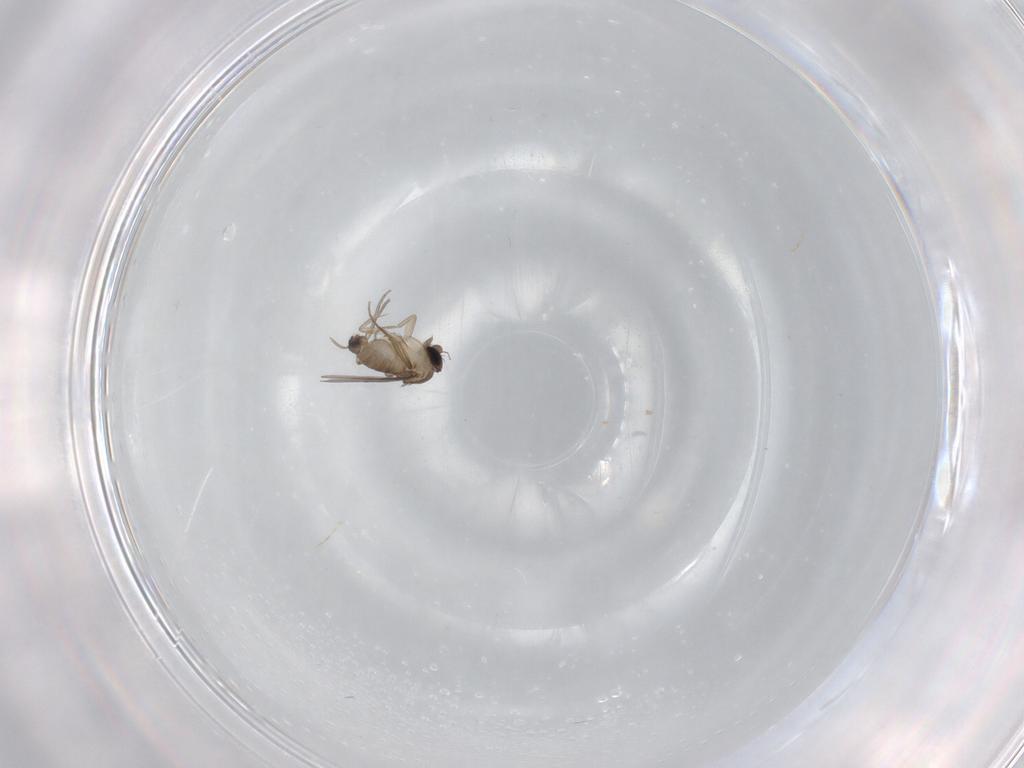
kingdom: Animalia
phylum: Arthropoda
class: Insecta
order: Diptera
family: Phoridae
